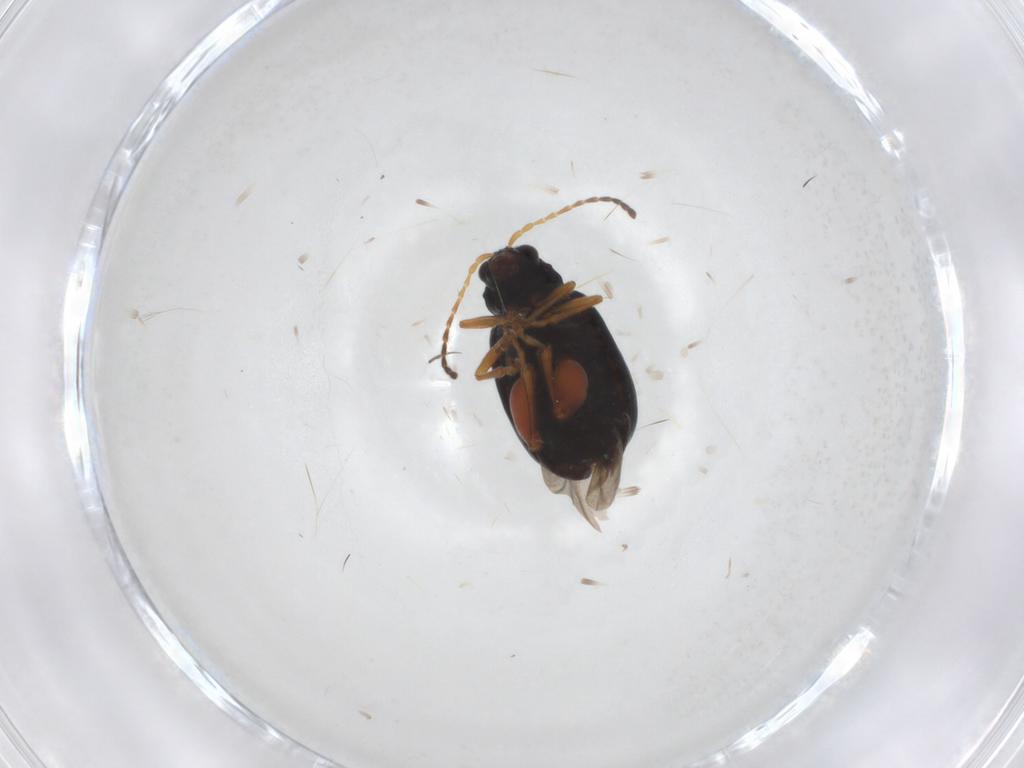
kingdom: Animalia
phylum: Arthropoda
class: Insecta
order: Coleoptera
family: Chrysomelidae
